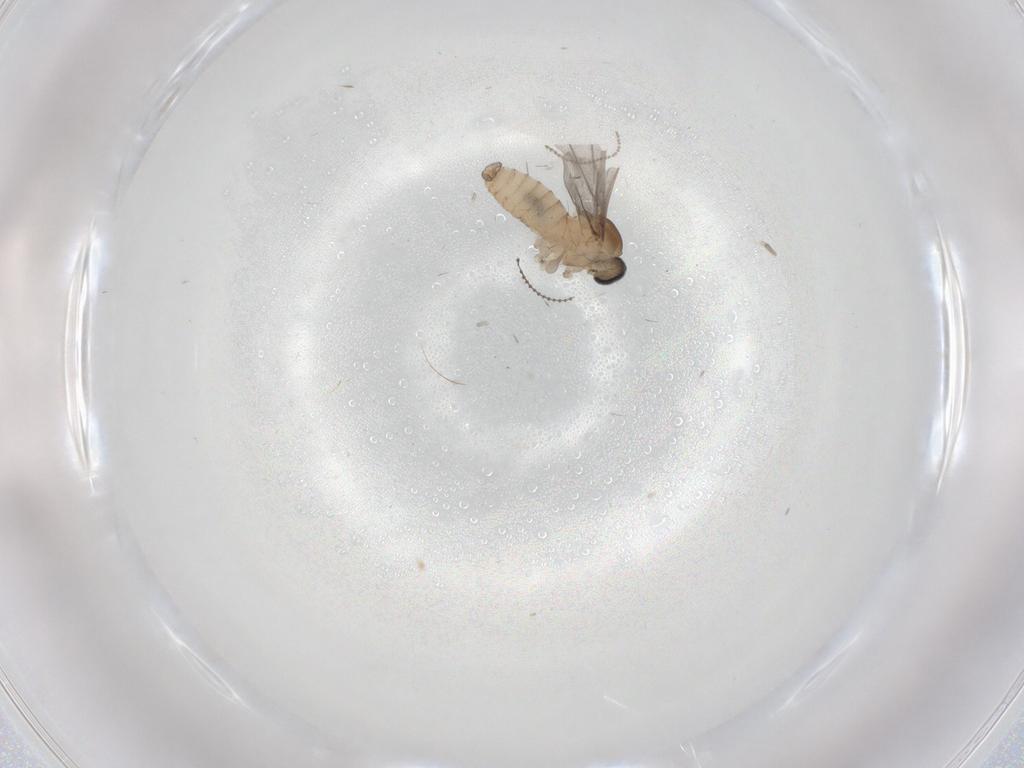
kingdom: Animalia
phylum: Arthropoda
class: Insecta
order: Diptera
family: Cecidomyiidae
